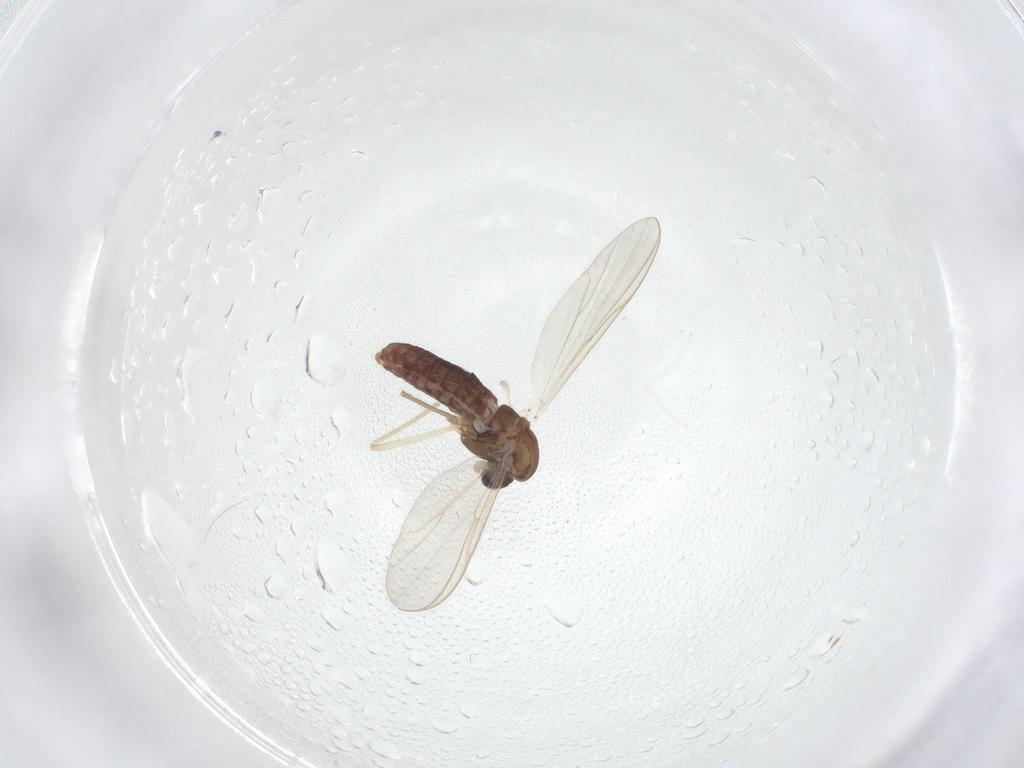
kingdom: Animalia
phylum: Arthropoda
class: Insecta
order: Diptera
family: Chironomidae
